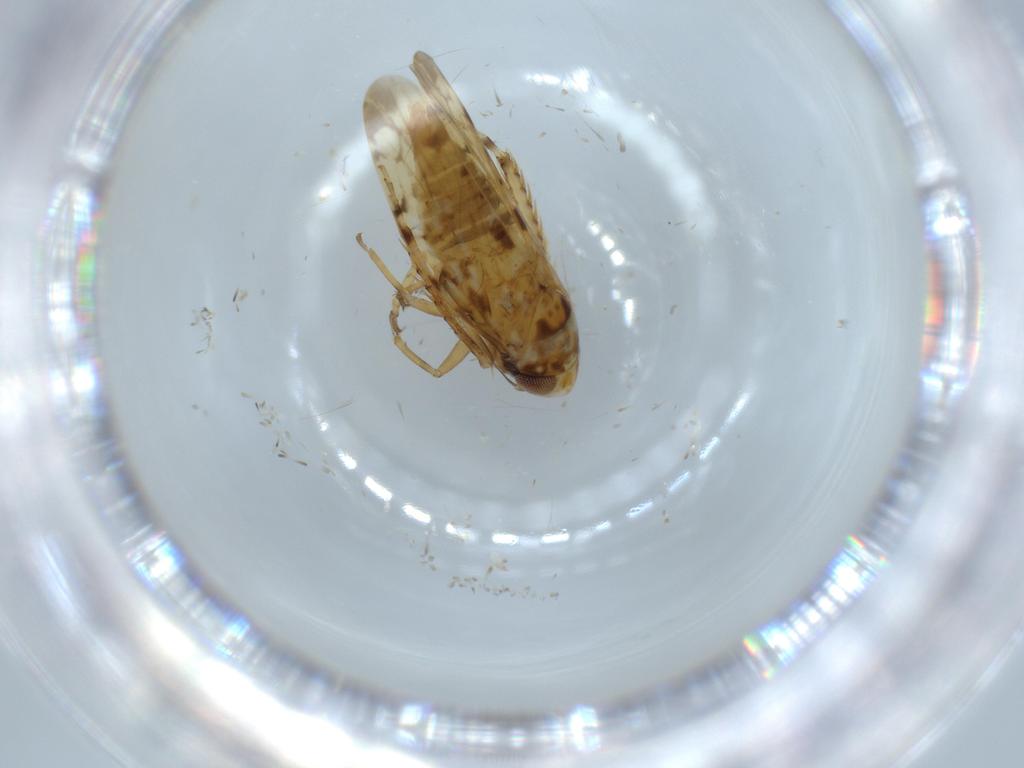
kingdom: Animalia
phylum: Arthropoda
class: Insecta
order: Hemiptera
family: Cicadellidae
